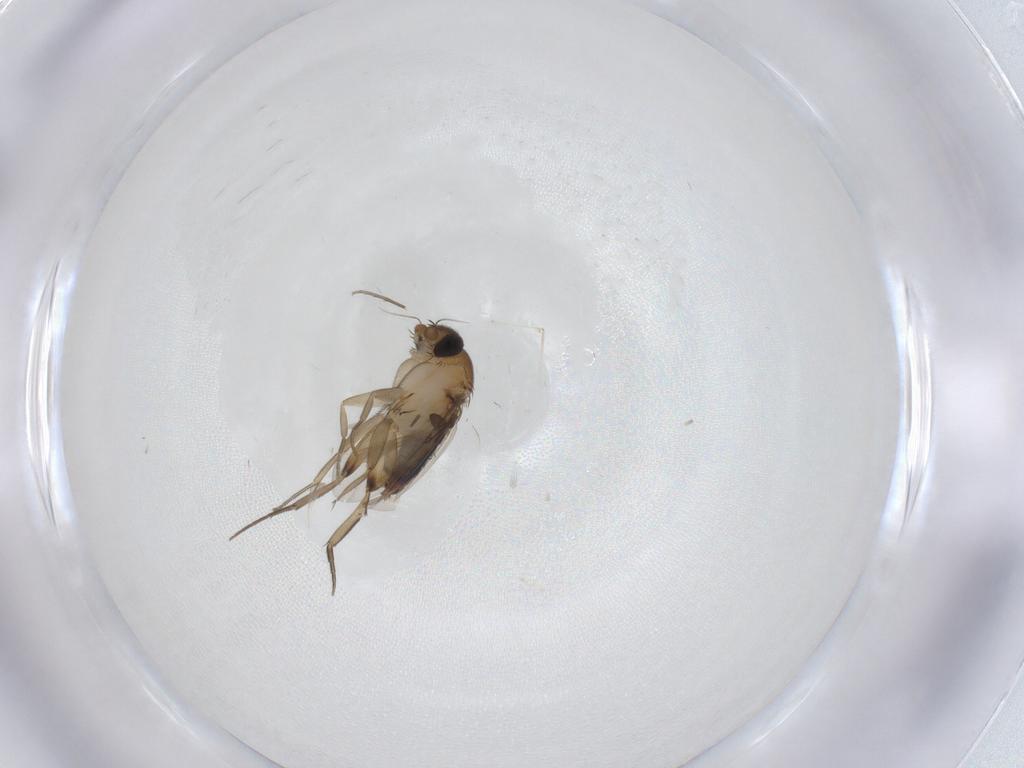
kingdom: Animalia
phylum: Arthropoda
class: Insecta
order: Diptera
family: Phoridae
